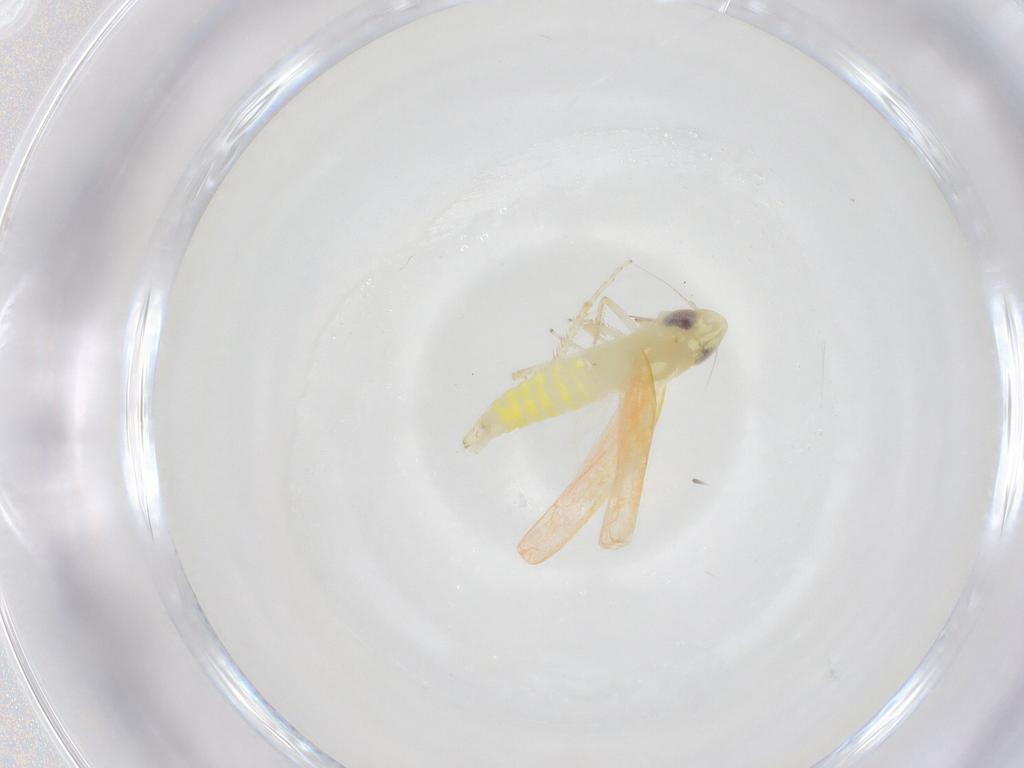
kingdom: Animalia
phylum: Arthropoda
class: Insecta
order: Hemiptera
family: Cicadellidae
